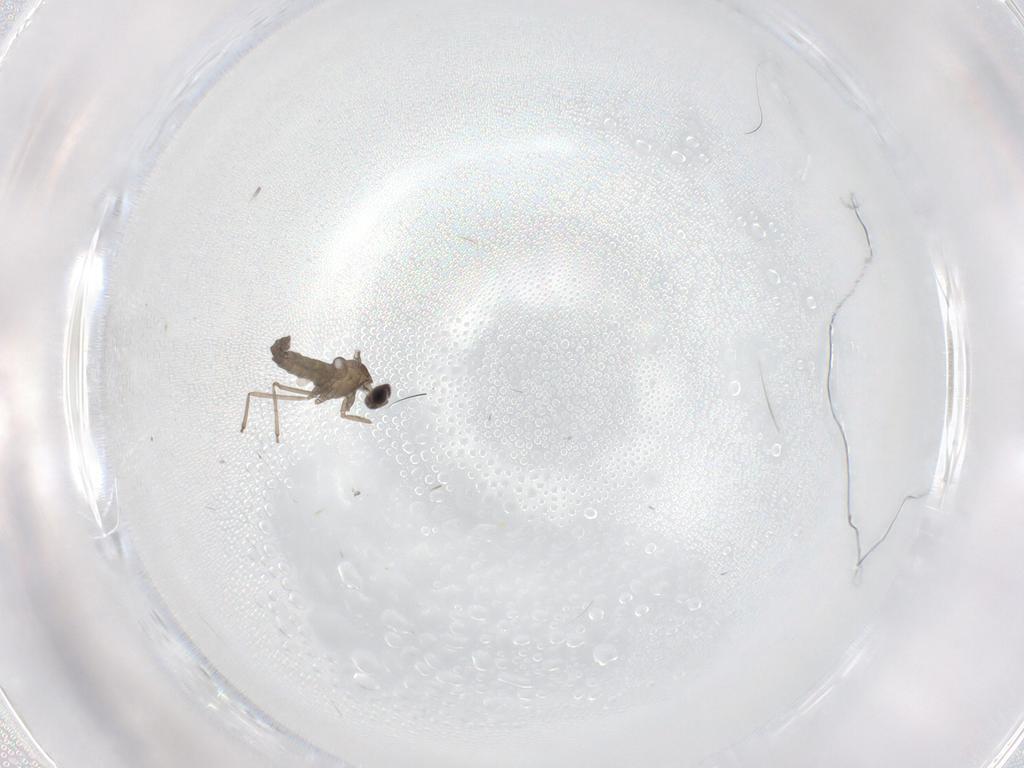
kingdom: Animalia
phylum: Arthropoda
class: Insecta
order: Diptera
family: Cecidomyiidae
